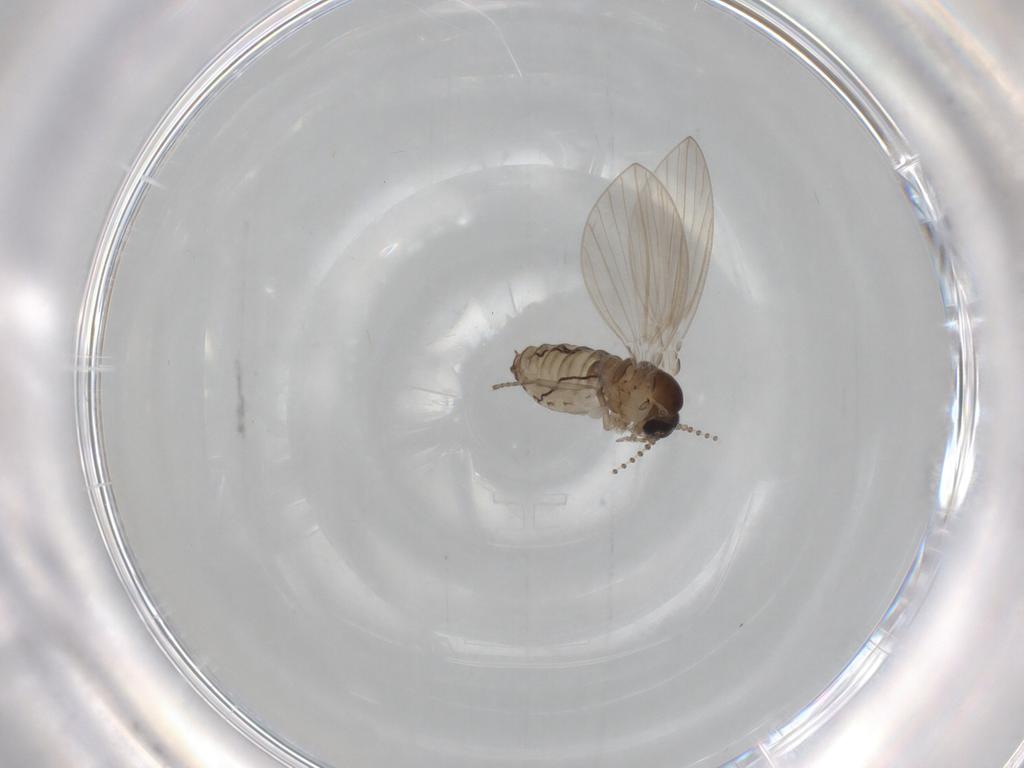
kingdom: Animalia
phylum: Arthropoda
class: Insecta
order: Diptera
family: Psychodidae
